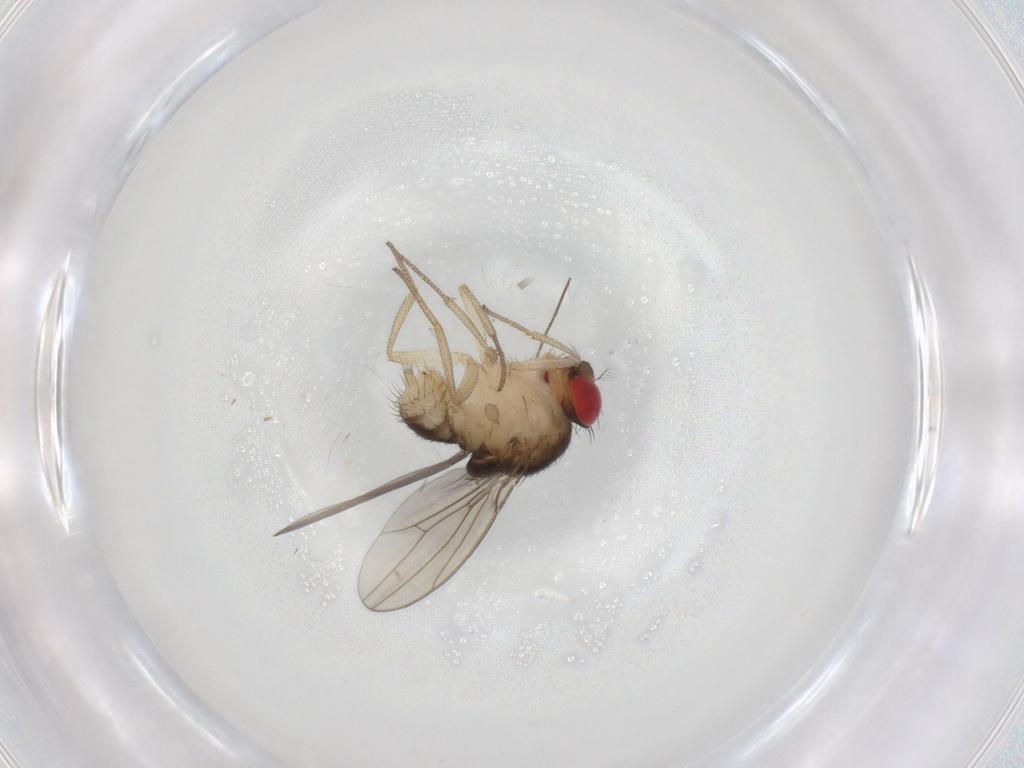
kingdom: Animalia
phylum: Arthropoda
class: Insecta
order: Diptera
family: Drosophilidae
